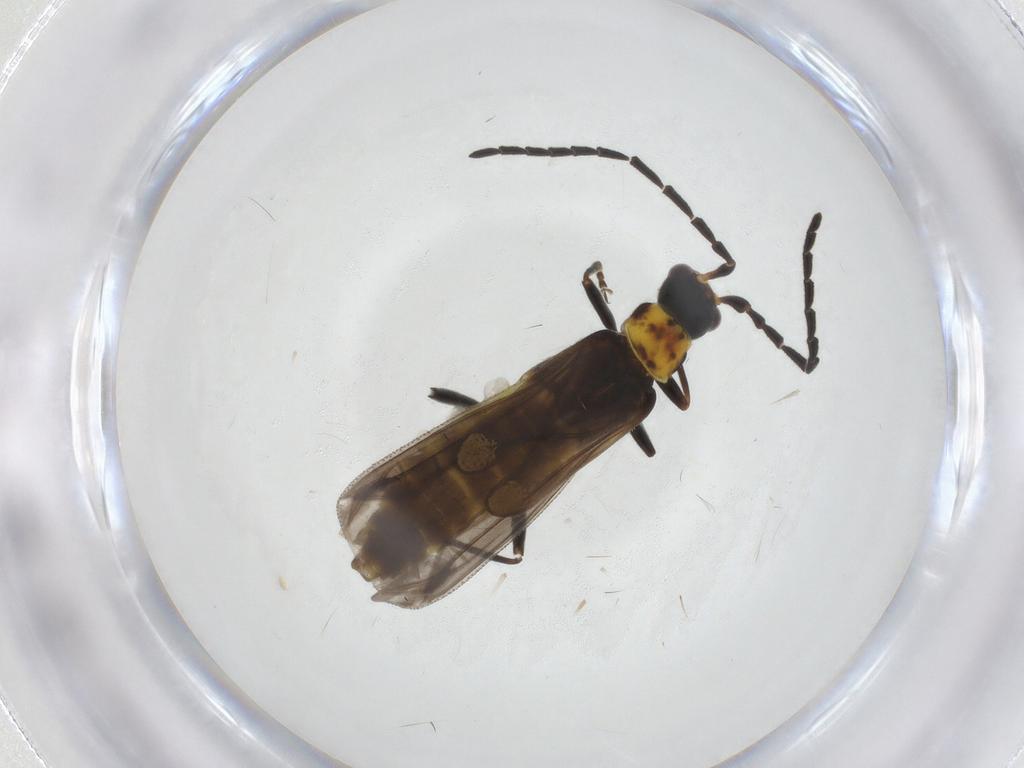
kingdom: Animalia
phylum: Arthropoda
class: Insecta
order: Coleoptera
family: Cantharidae
